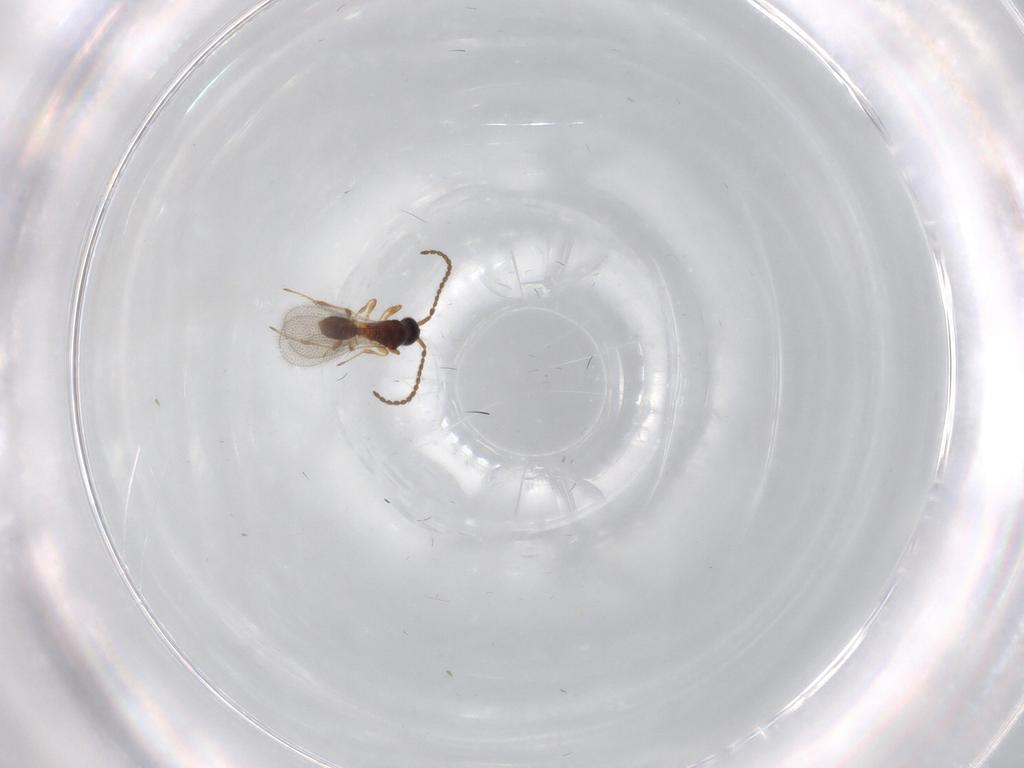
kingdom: Animalia
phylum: Arthropoda
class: Insecta
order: Hymenoptera
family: Diapriidae
